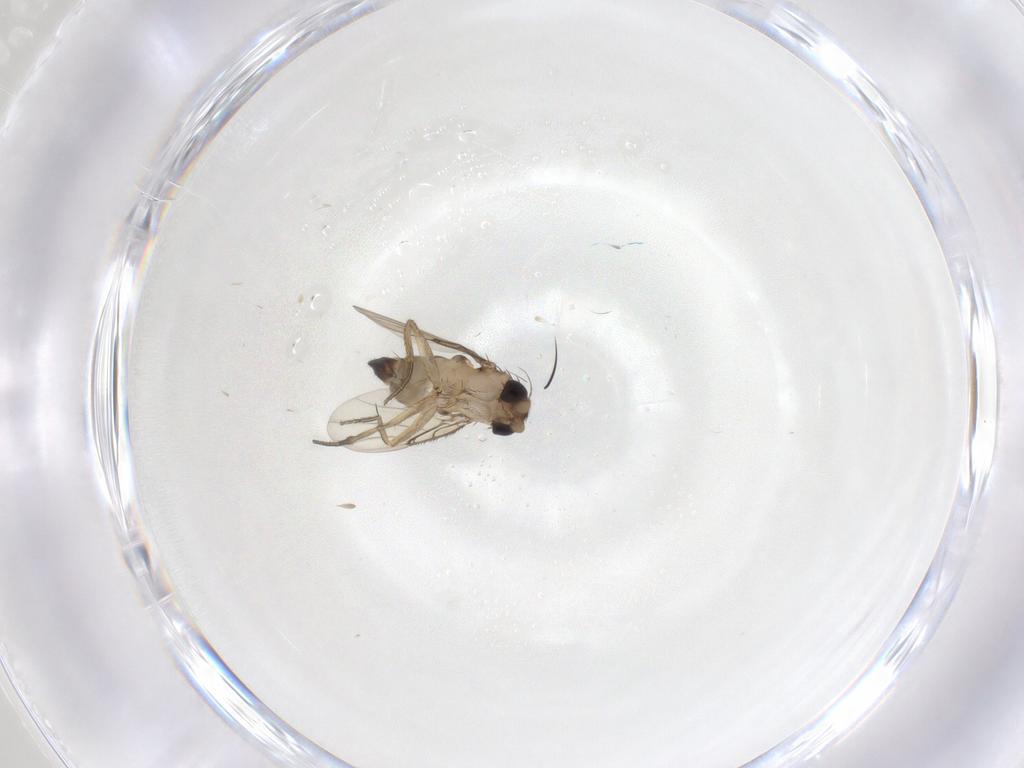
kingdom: Animalia
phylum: Arthropoda
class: Insecta
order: Diptera
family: Phoridae
